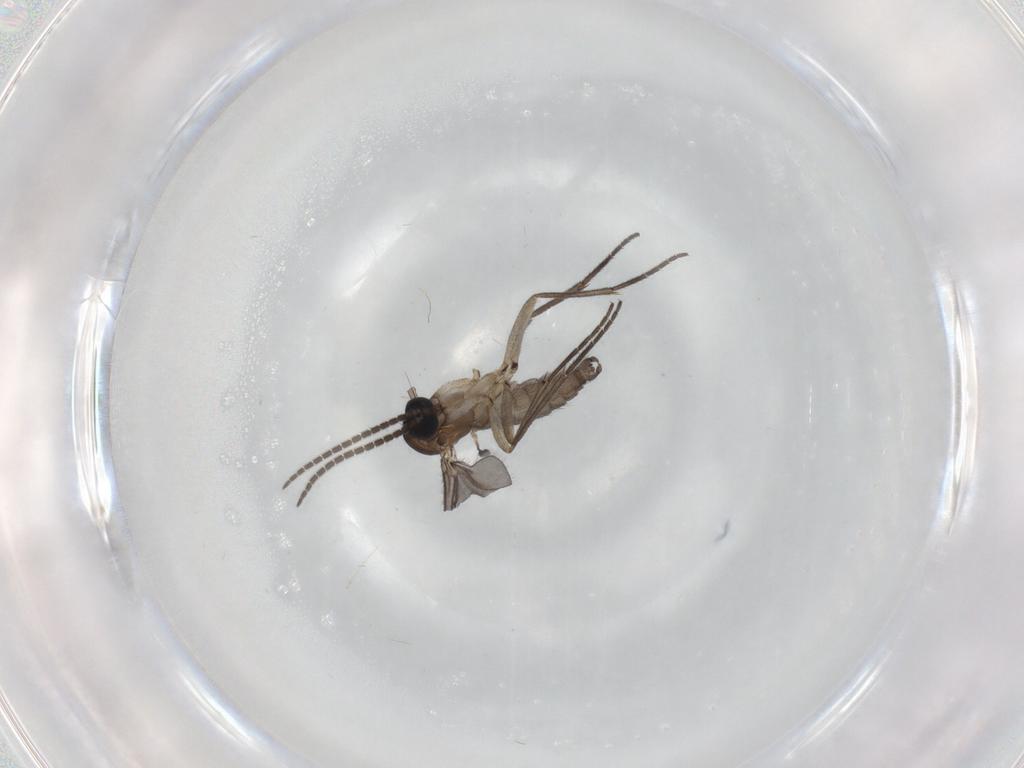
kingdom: Animalia
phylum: Arthropoda
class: Insecta
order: Diptera
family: Sciaridae
